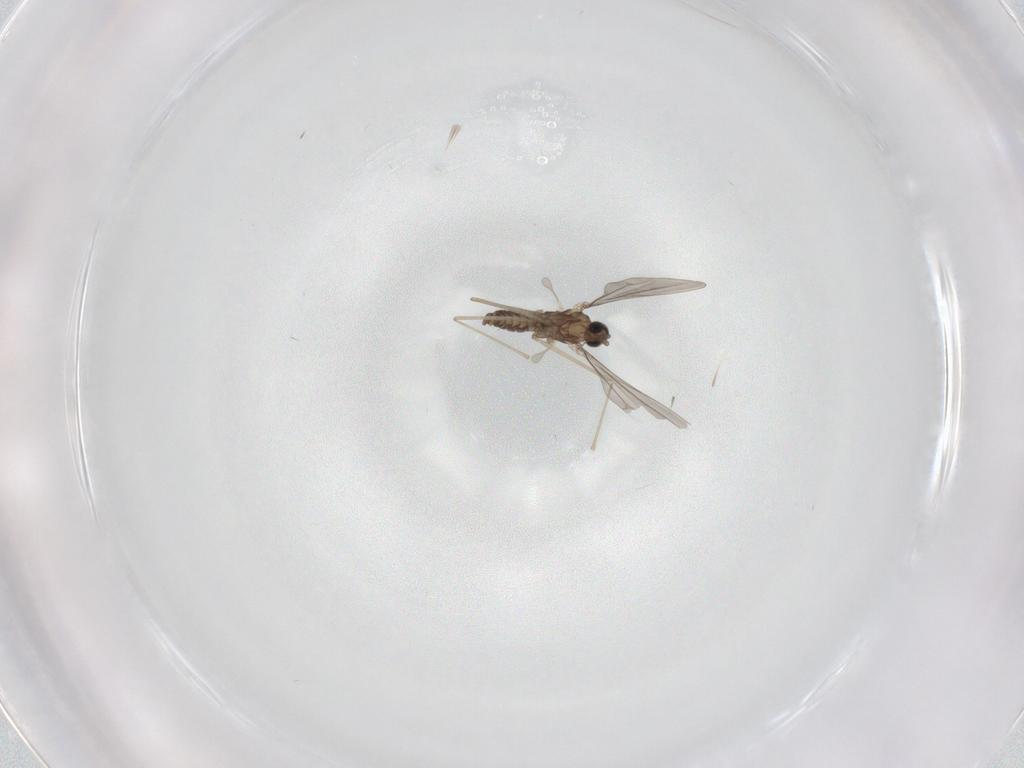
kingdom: Animalia
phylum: Arthropoda
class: Insecta
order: Diptera
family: Cecidomyiidae
